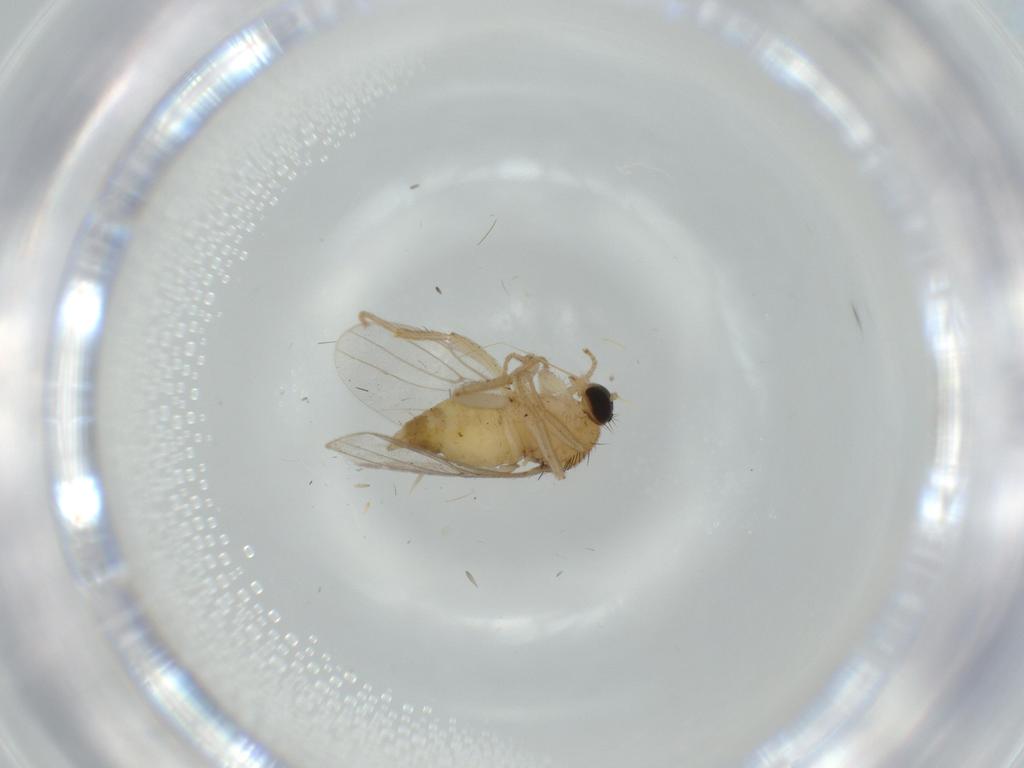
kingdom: Animalia
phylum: Arthropoda
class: Insecta
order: Diptera
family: Hybotidae
